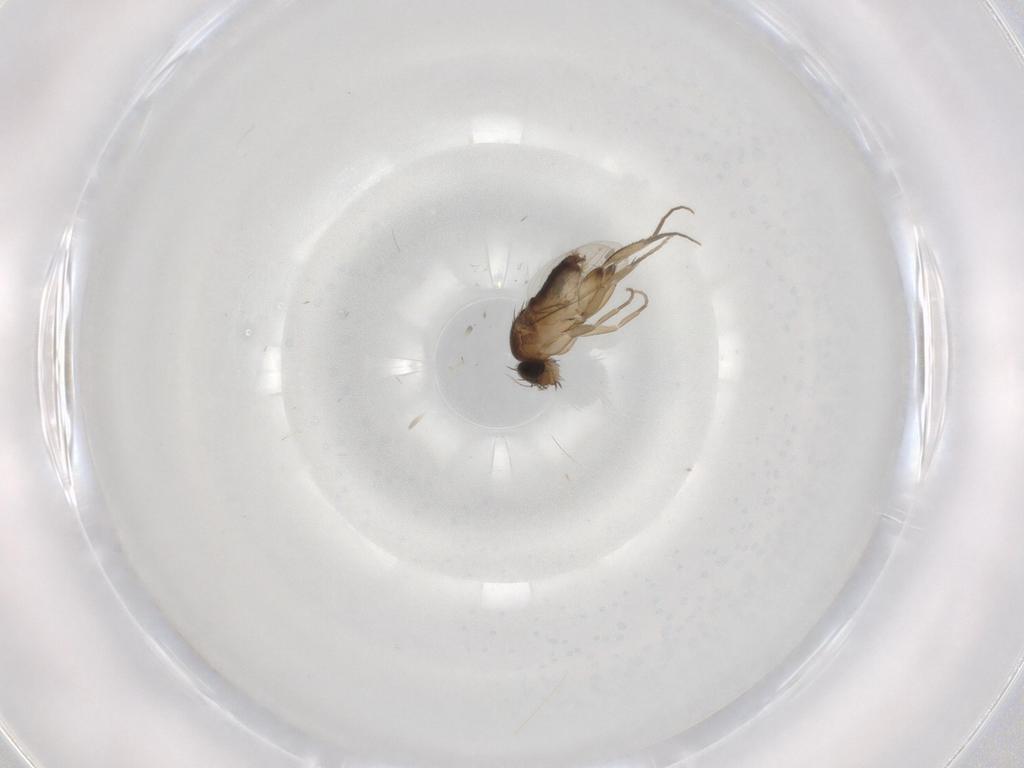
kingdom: Animalia
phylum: Arthropoda
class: Insecta
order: Diptera
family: Phoridae
